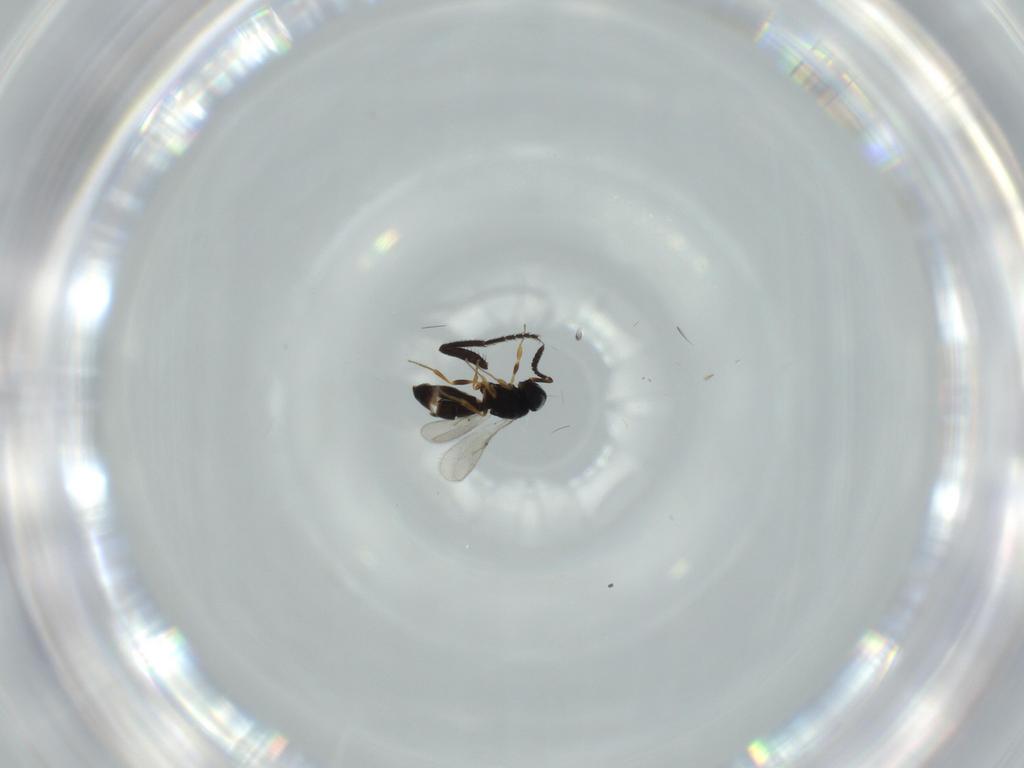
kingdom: Animalia
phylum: Arthropoda
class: Insecta
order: Hymenoptera
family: Scelionidae
